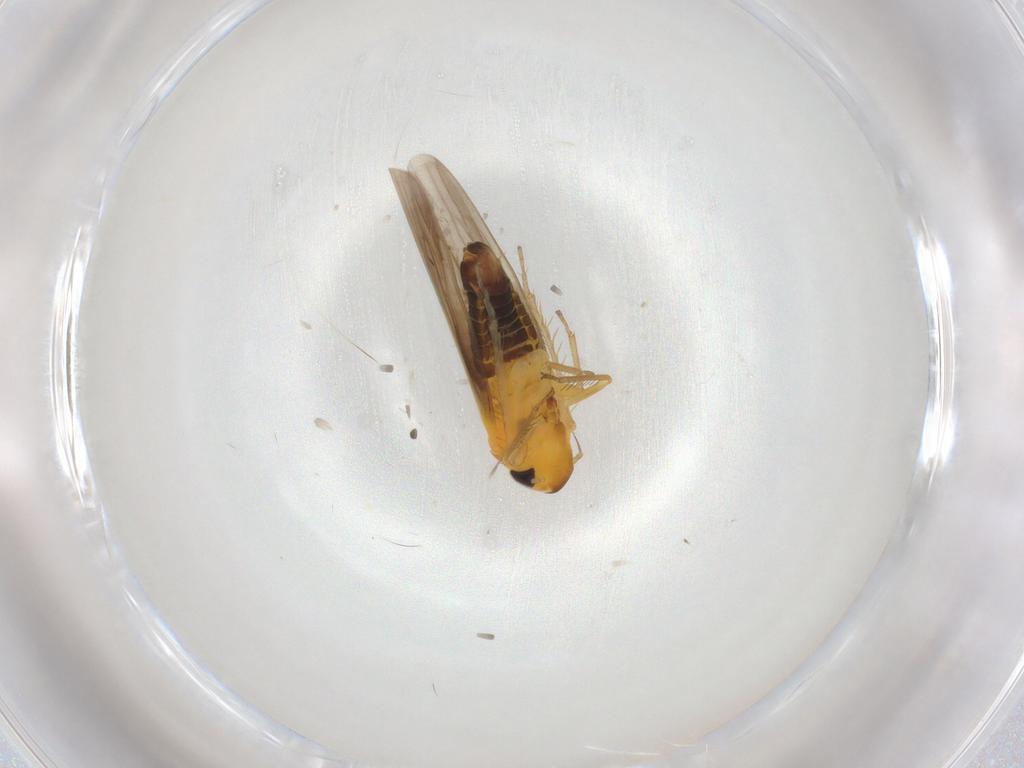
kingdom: Animalia
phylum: Arthropoda
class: Insecta
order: Hemiptera
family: Cicadellidae
